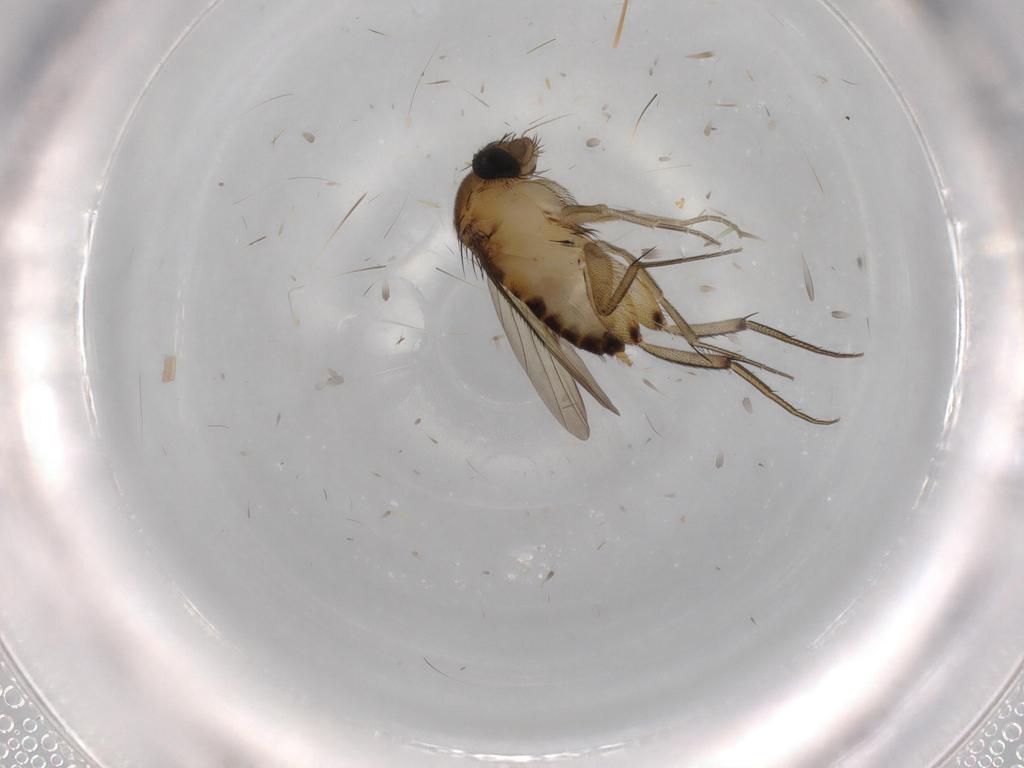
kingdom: Animalia
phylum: Arthropoda
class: Insecta
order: Diptera
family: Phoridae
